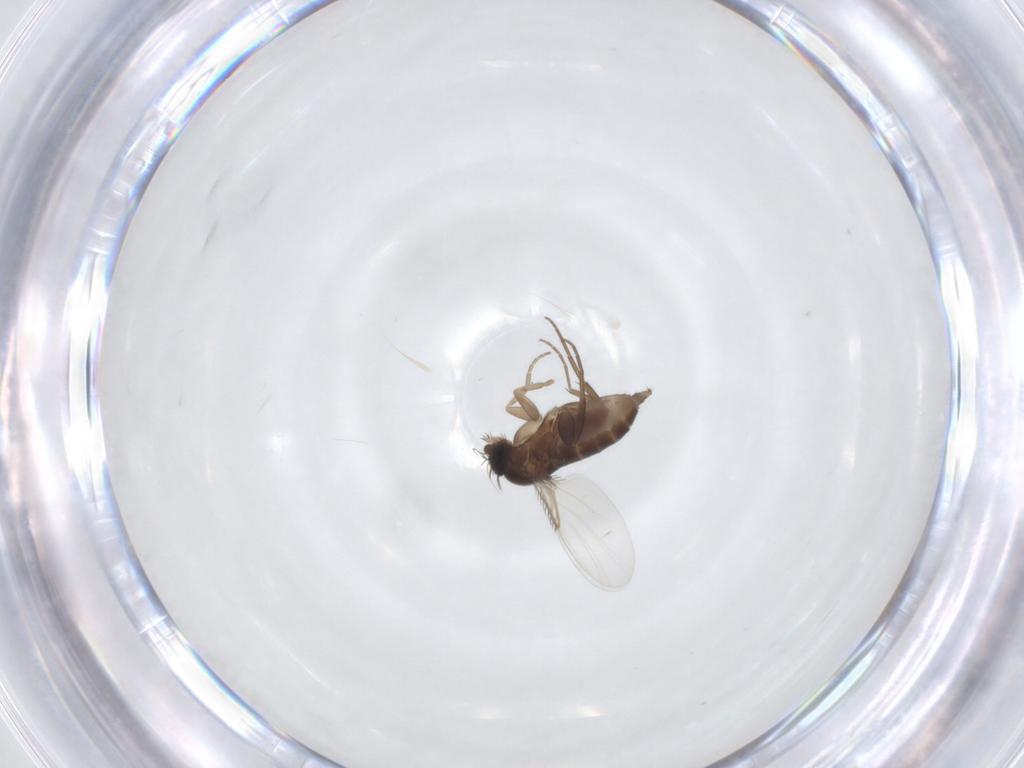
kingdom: Animalia
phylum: Arthropoda
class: Insecta
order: Diptera
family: Phoridae
